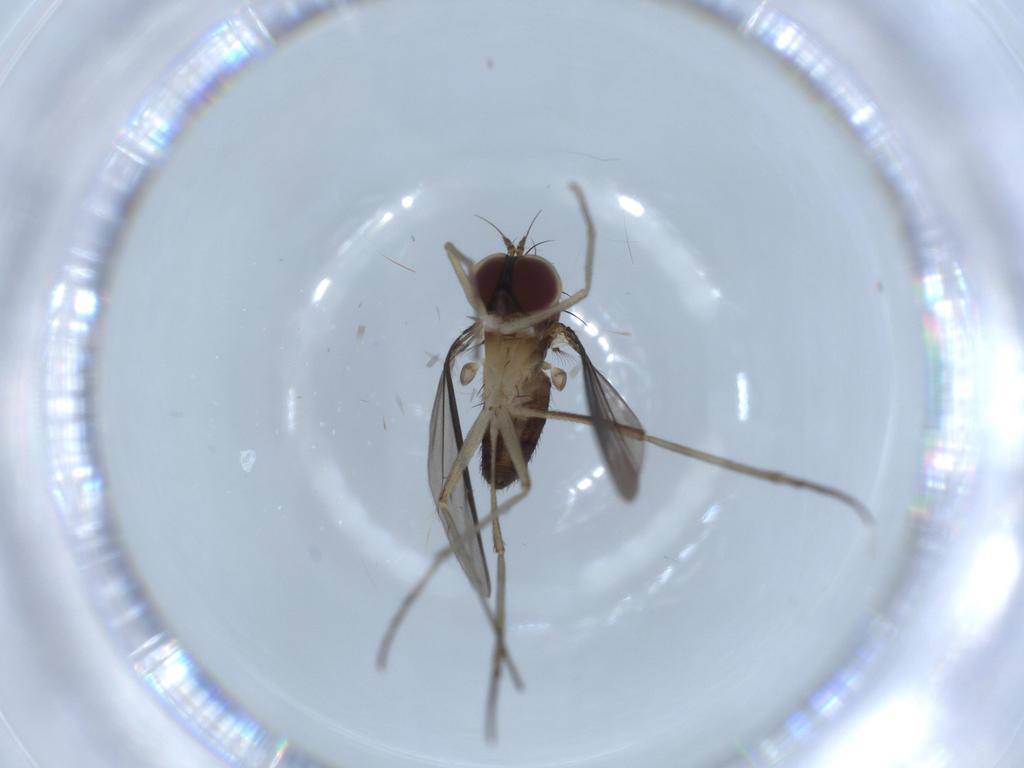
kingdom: Animalia
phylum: Arthropoda
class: Insecta
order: Diptera
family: Dolichopodidae
